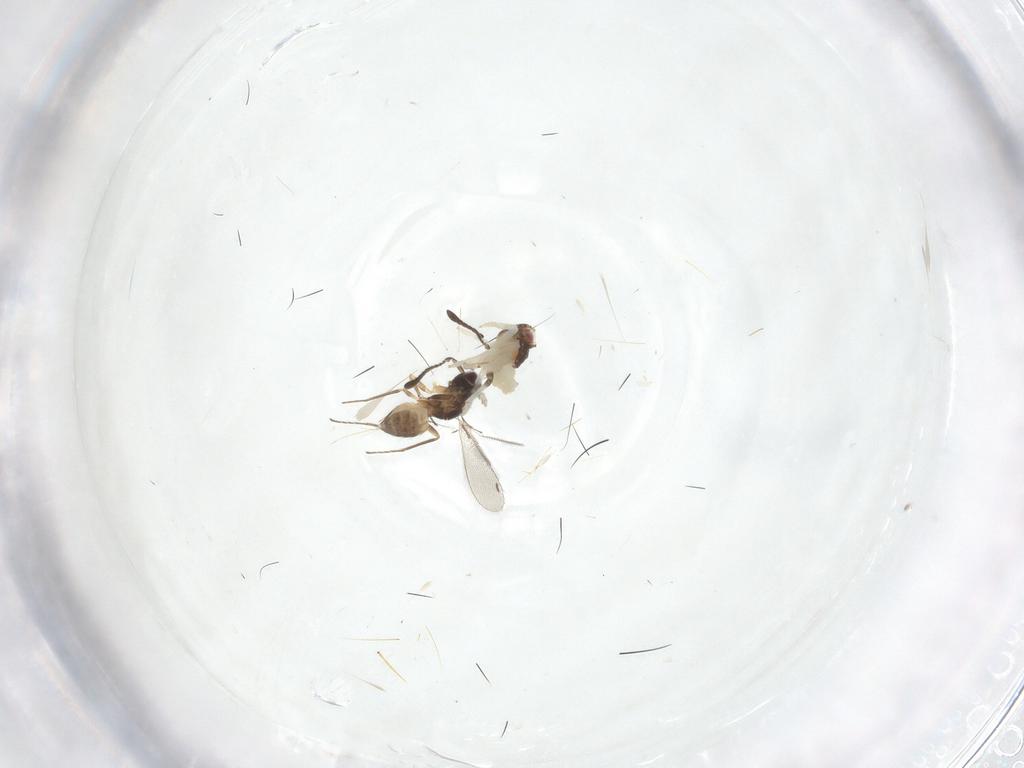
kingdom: Animalia
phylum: Arthropoda
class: Insecta
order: Hymenoptera
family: Mymaridae
